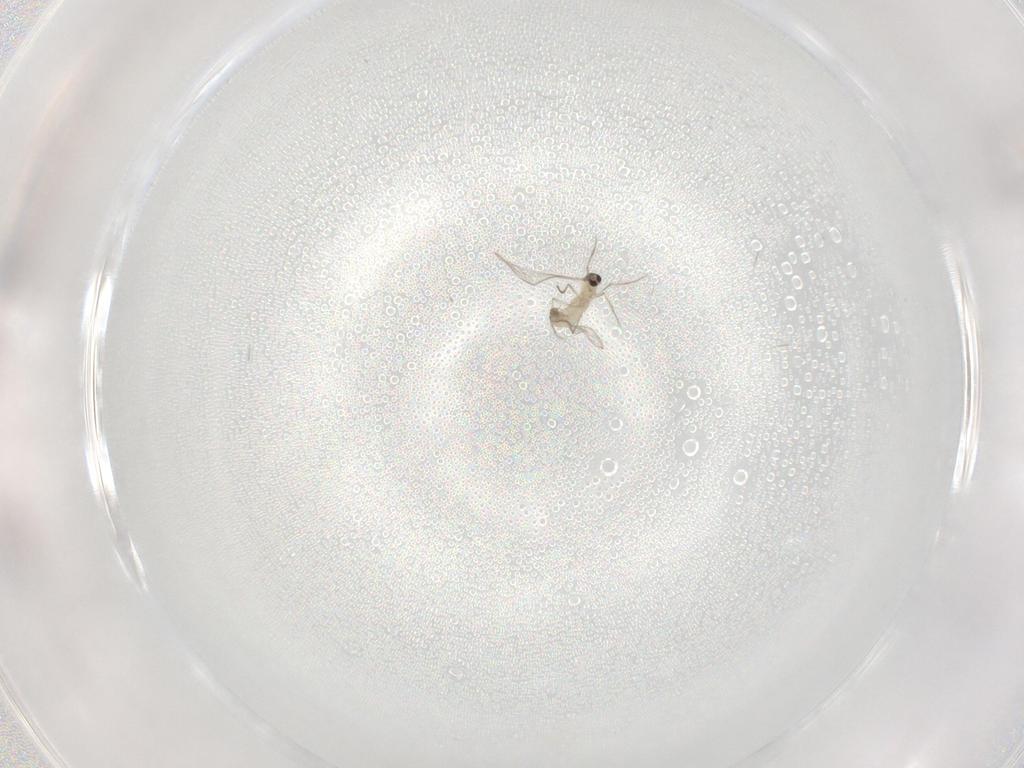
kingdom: Animalia
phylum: Arthropoda
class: Insecta
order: Diptera
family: Cecidomyiidae
